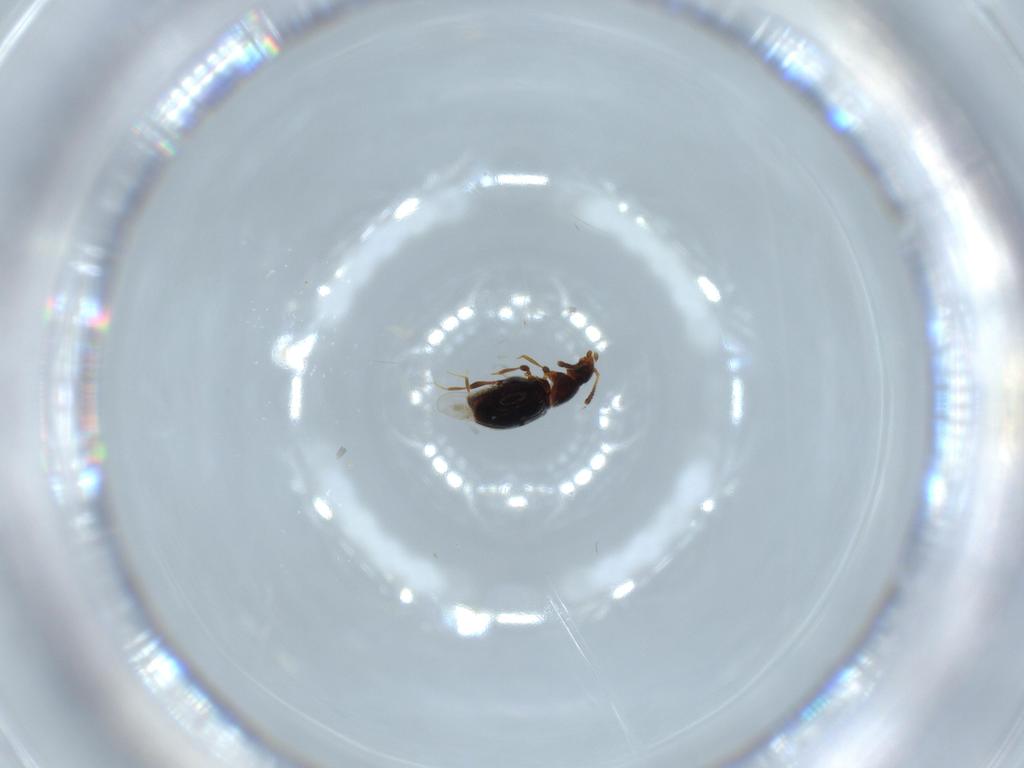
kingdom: Animalia
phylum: Arthropoda
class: Insecta
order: Coleoptera
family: Staphylinidae
